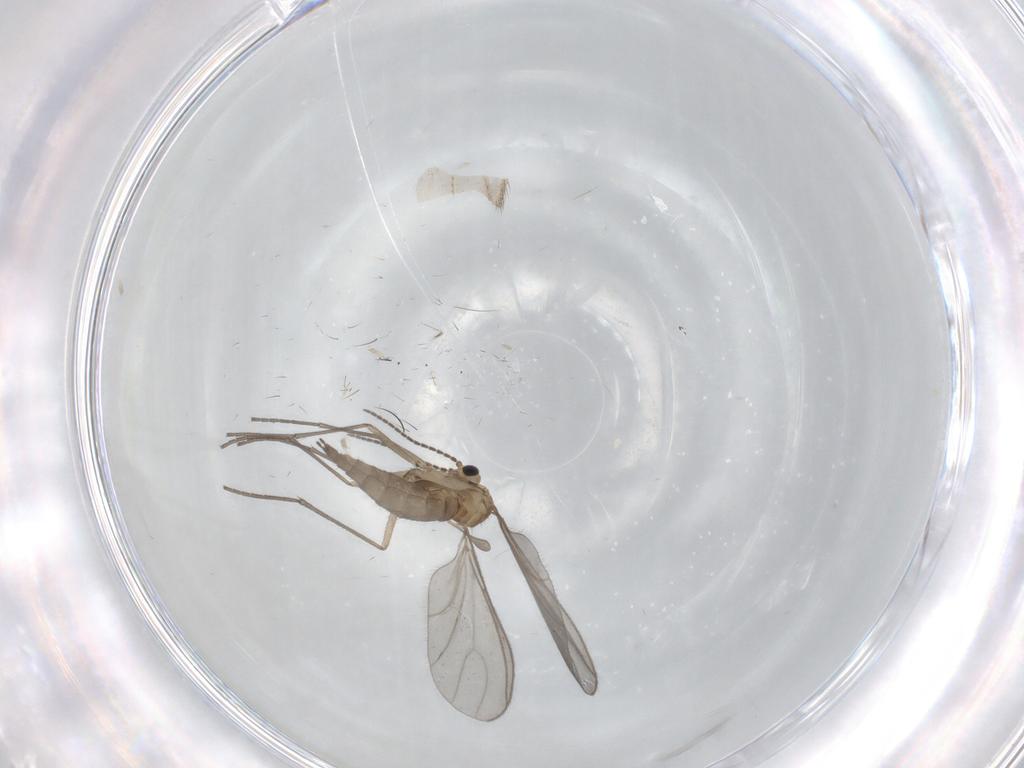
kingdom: Animalia
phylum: Arthropoda
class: Insecta
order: Diptera
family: Sciaridae
